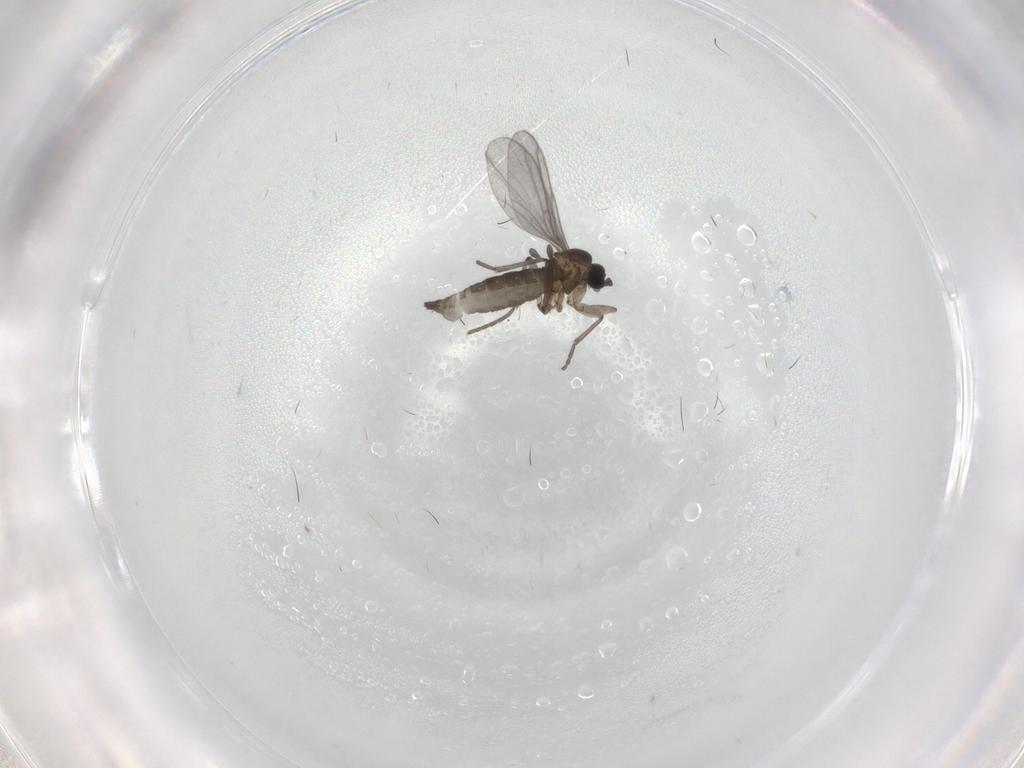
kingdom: Animalia
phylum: Arthropoda
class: Insecta
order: Diptera
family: Cecidomyiidae
